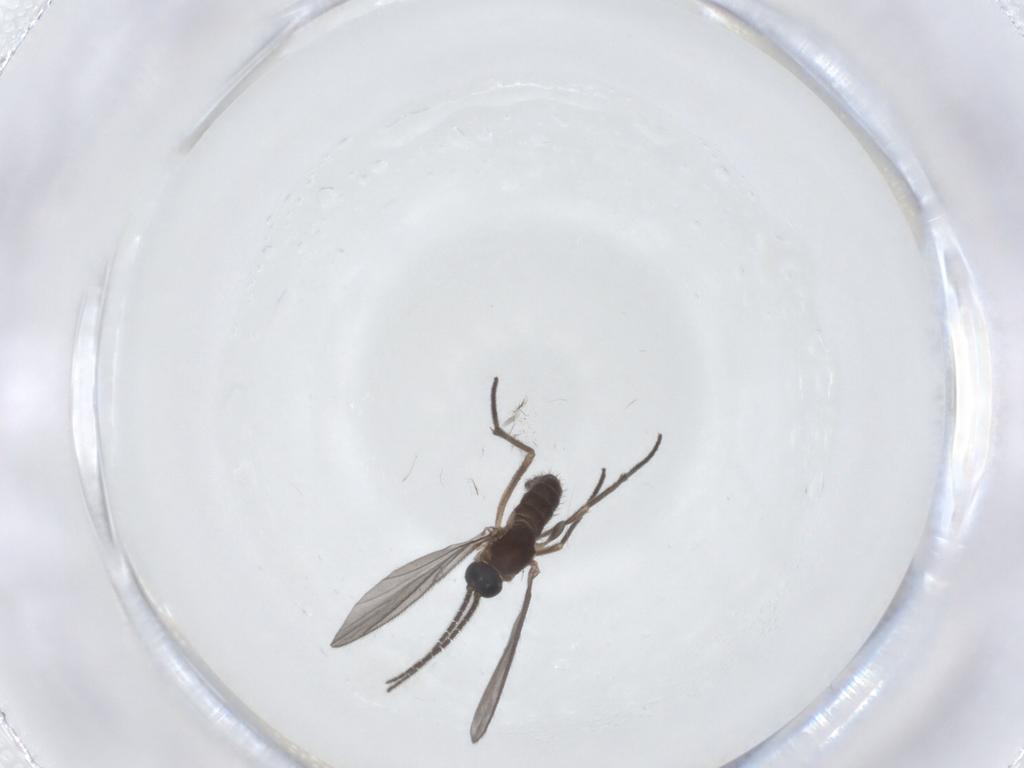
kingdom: Animalia
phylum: Arthropoda
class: Insecta
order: Diptera
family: Sciaridae
